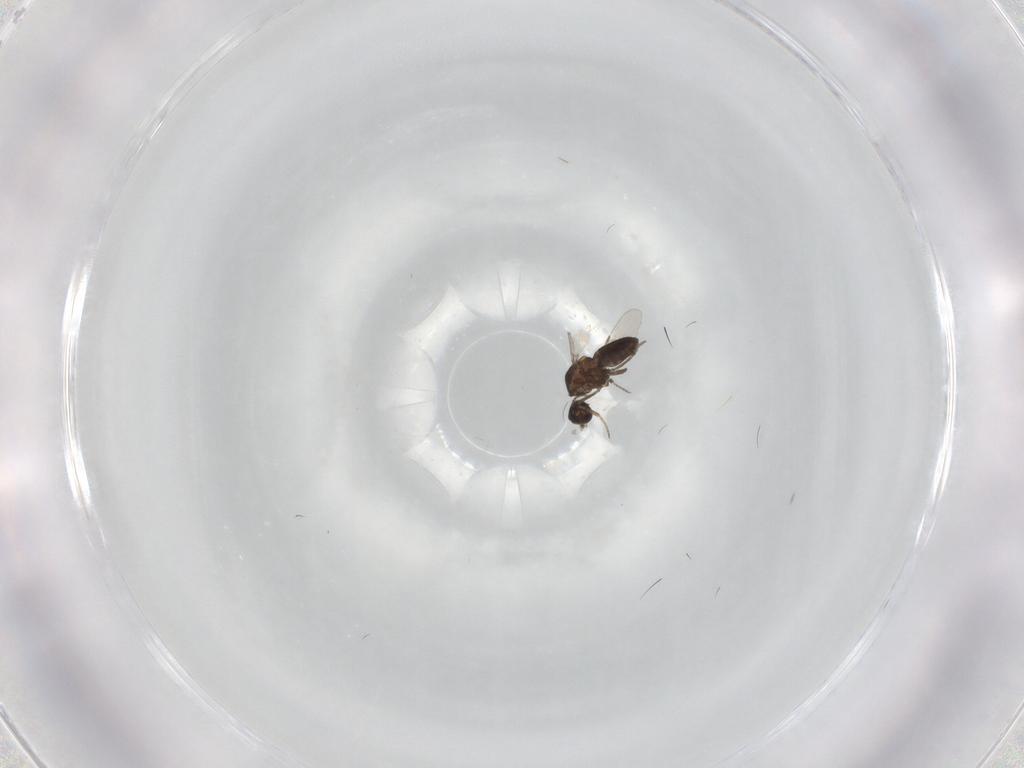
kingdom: Animalia
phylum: Arthropoda
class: Insecta
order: Diptera
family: Ceratopogonidae
